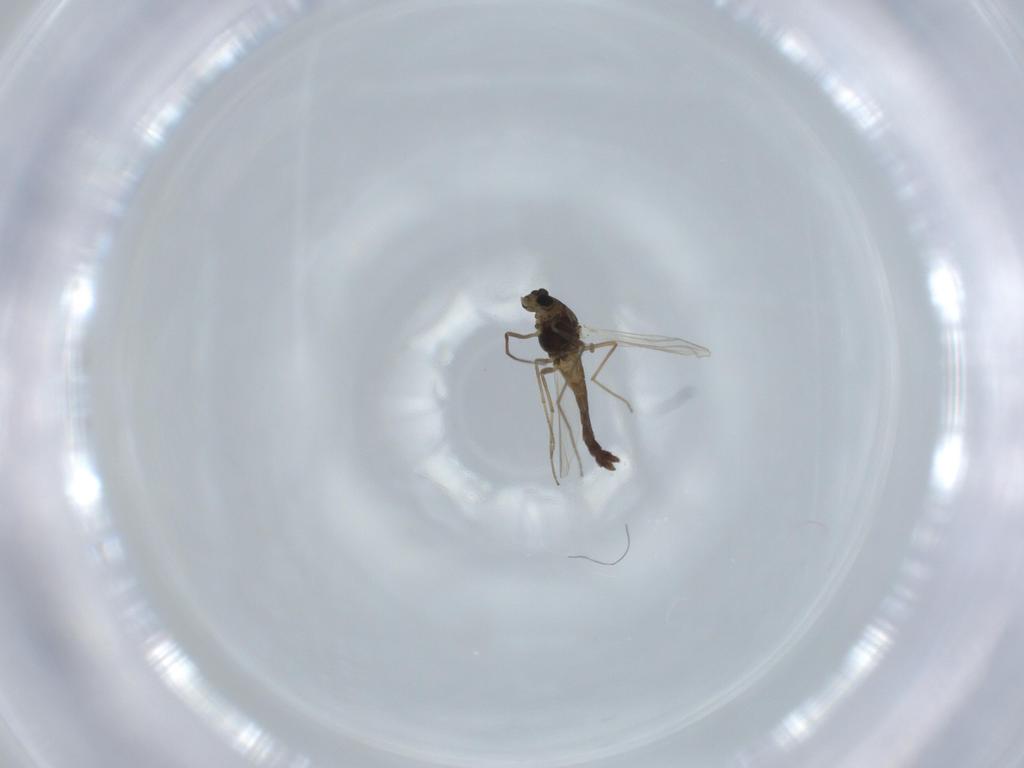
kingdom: Animalia
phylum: Arthropoda
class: Insecta
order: Diptera
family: Chironomidae
